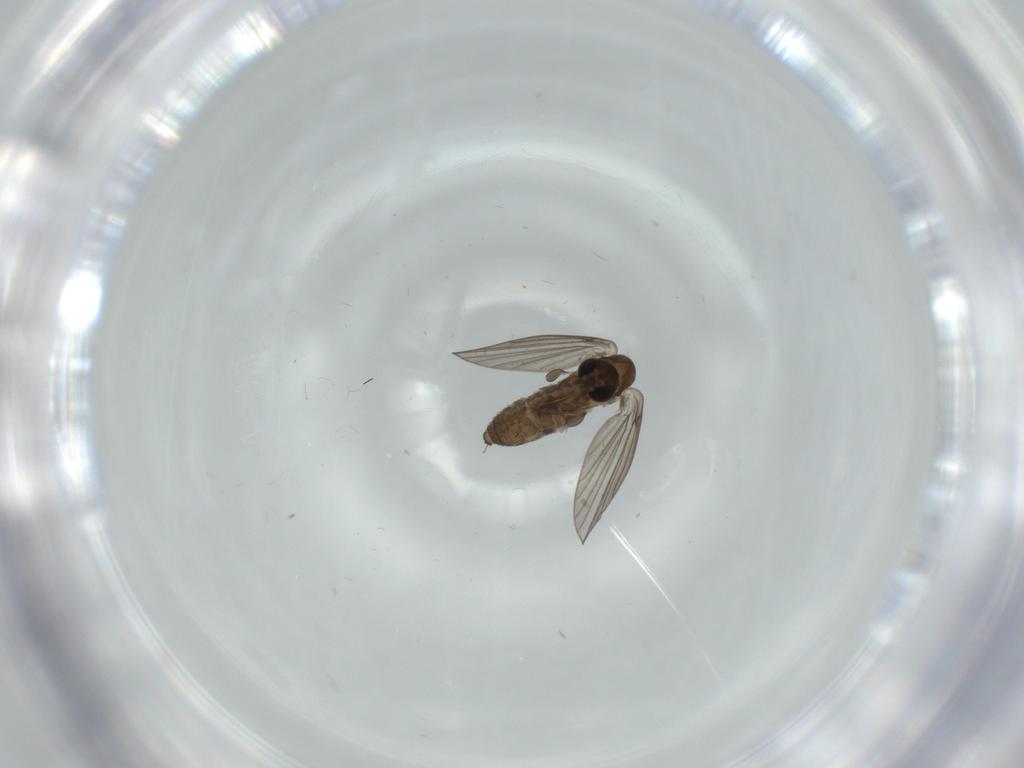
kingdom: Animalia
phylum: Arthropoda
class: Insecta
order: Diptera
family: Psychodidae
